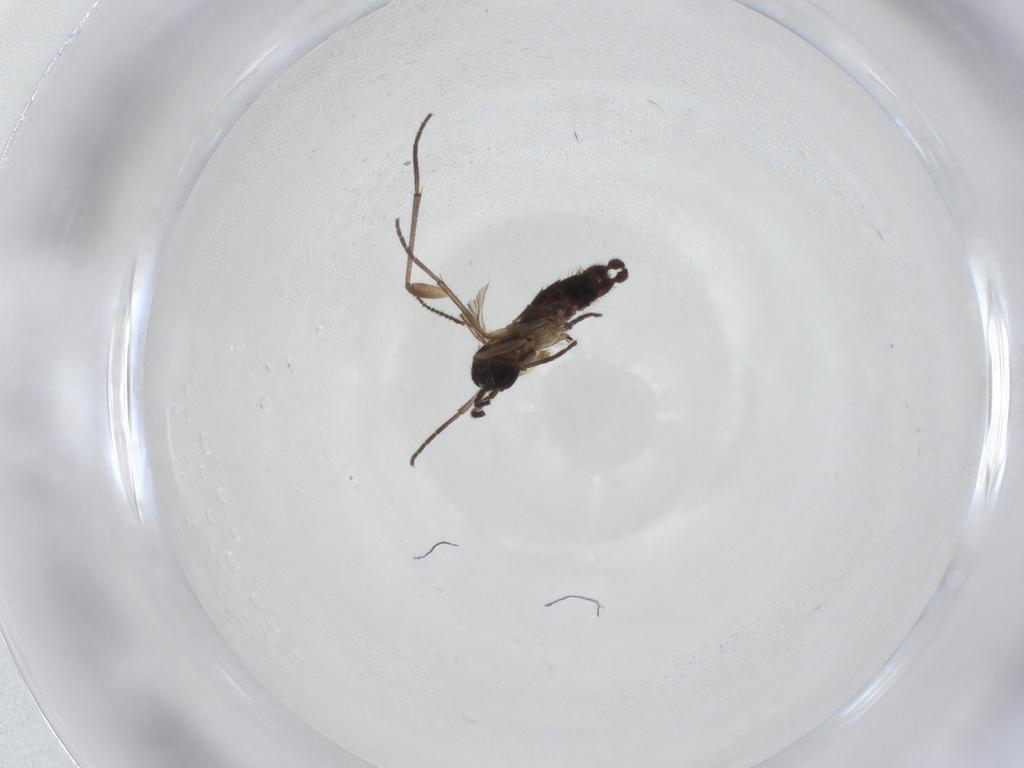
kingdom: Animalia
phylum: Arthropoda
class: Insecta
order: Diptera
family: Sciaridae
